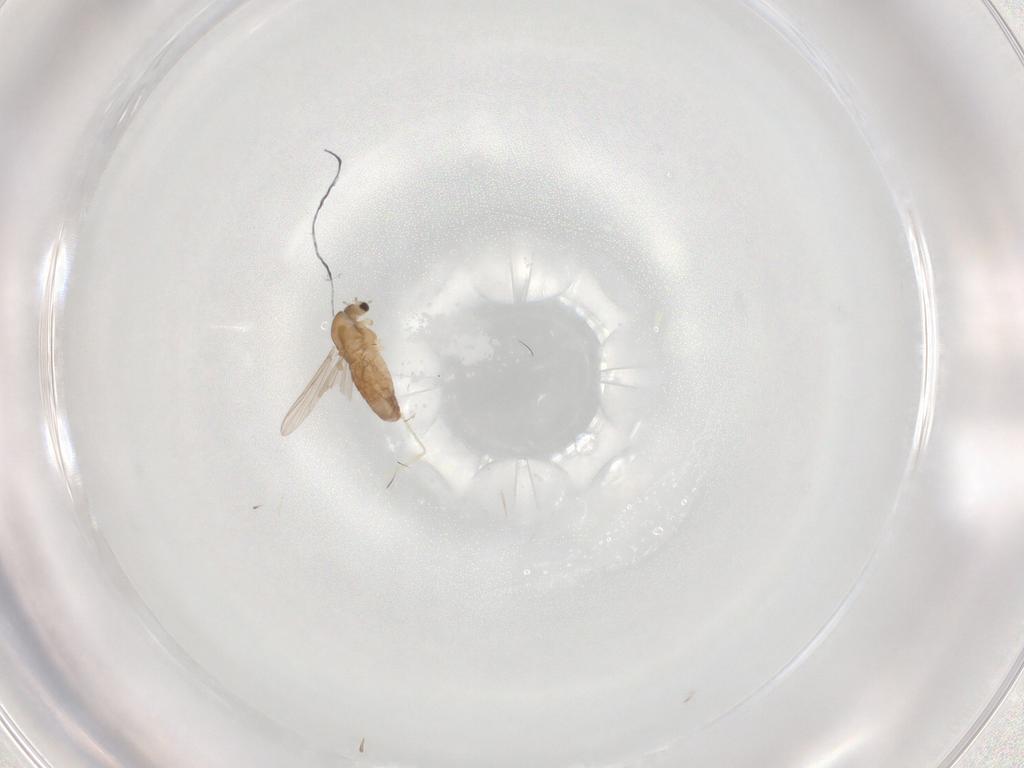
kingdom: Animalia
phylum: Arthropoda
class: Insecta
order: Diptera
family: Chironomidae
